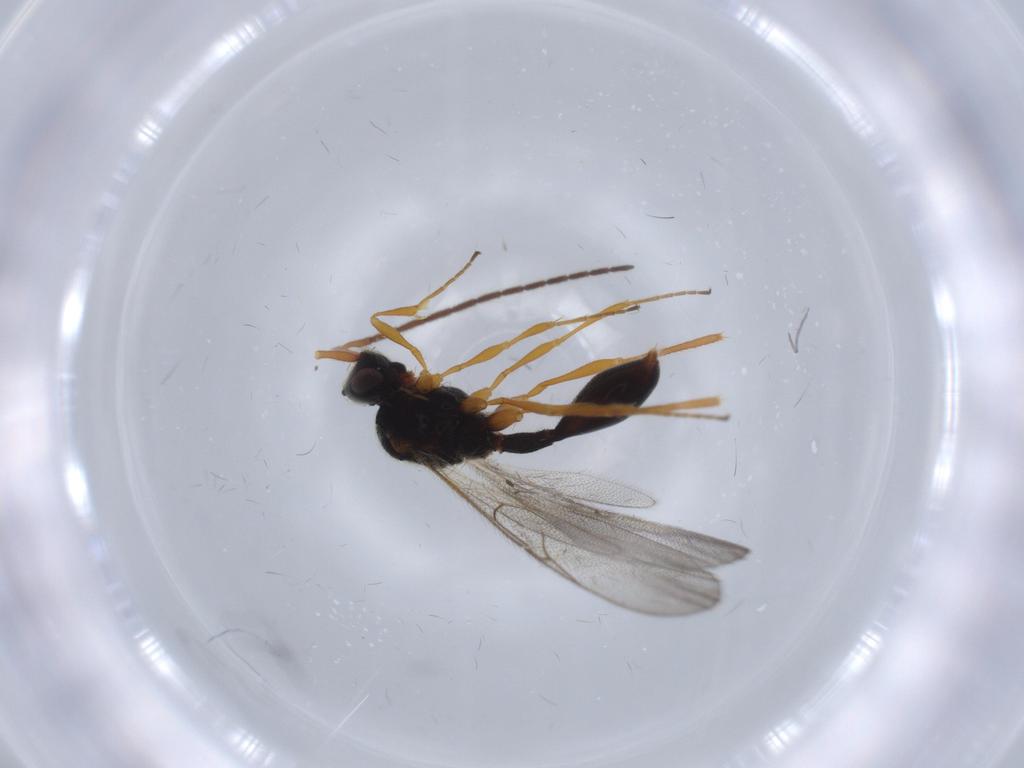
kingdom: Animalia
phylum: Arthropoda
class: Insecta
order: Hymenoptera
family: Diapriidae
